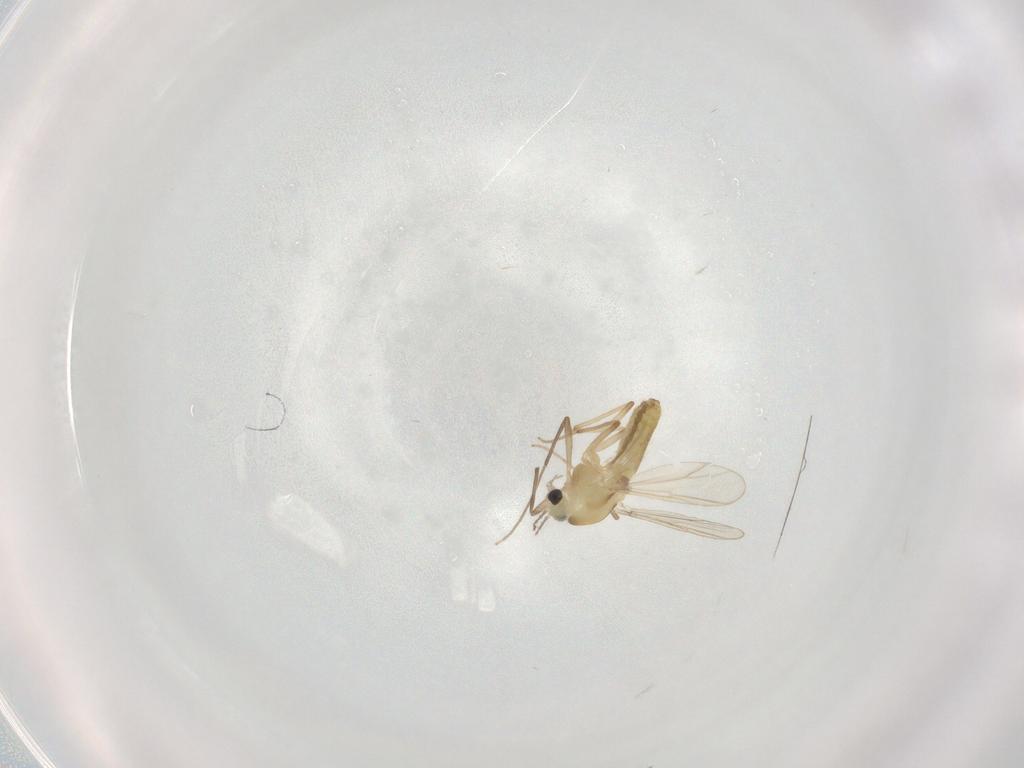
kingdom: Animalia
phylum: Arthropoda
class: Insecta
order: Diptera
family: Chironomidae
